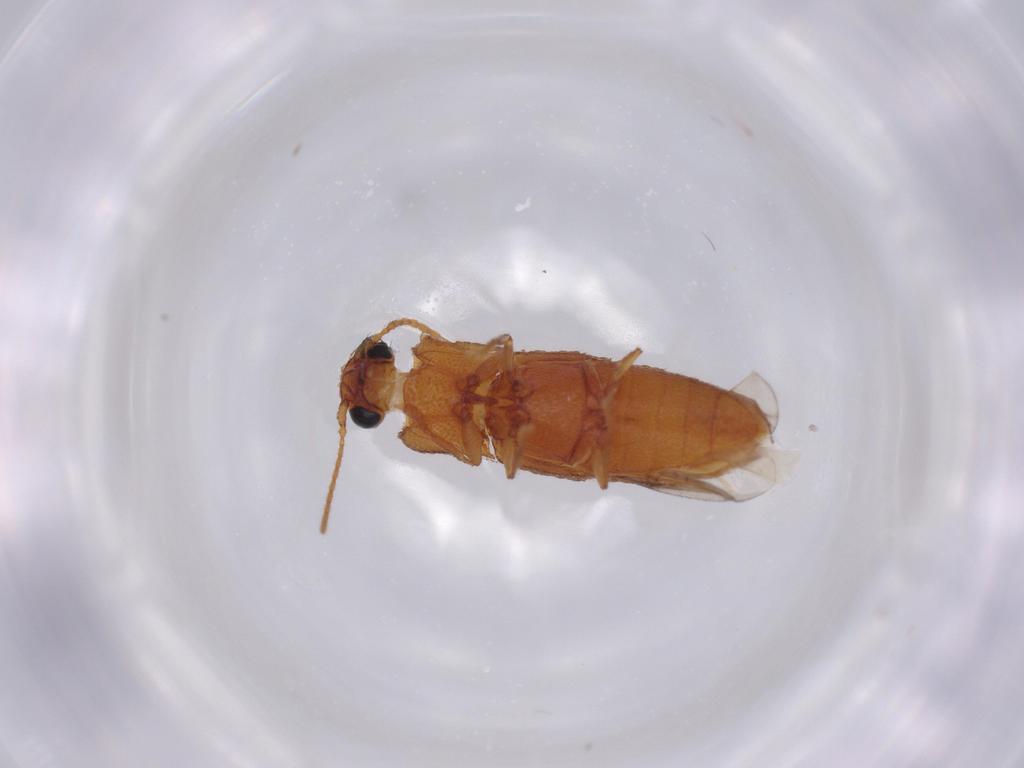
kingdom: Animalia
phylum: Arthropoda
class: Insecta
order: Coleoptera
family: Elateridae
